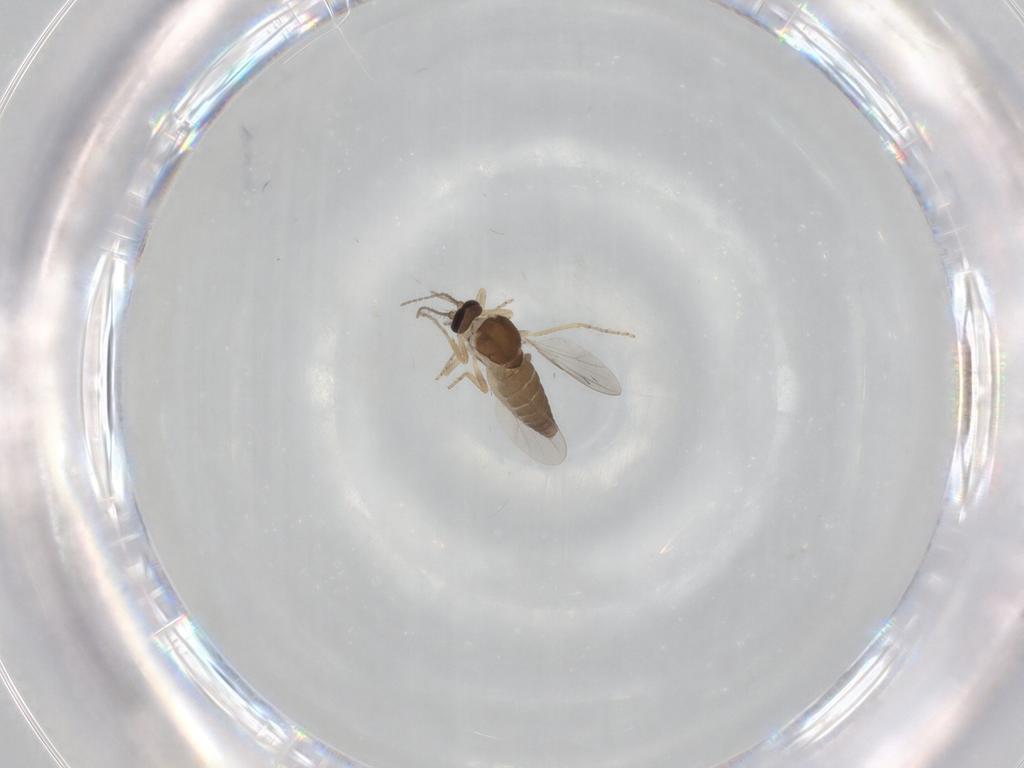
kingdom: Animalia
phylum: Arthropoda
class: Insecta
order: Diptera
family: Ceratopogonidae
